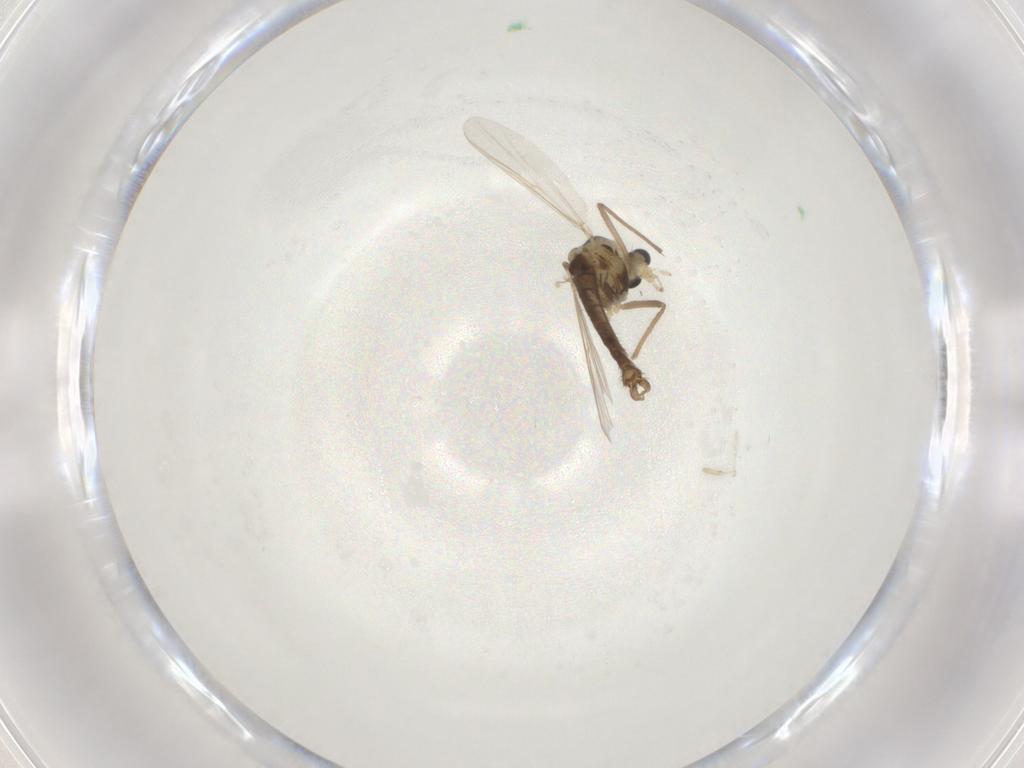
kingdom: Animalia
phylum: Arthropoda
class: Insecta
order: Diptera
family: Chironomidae
